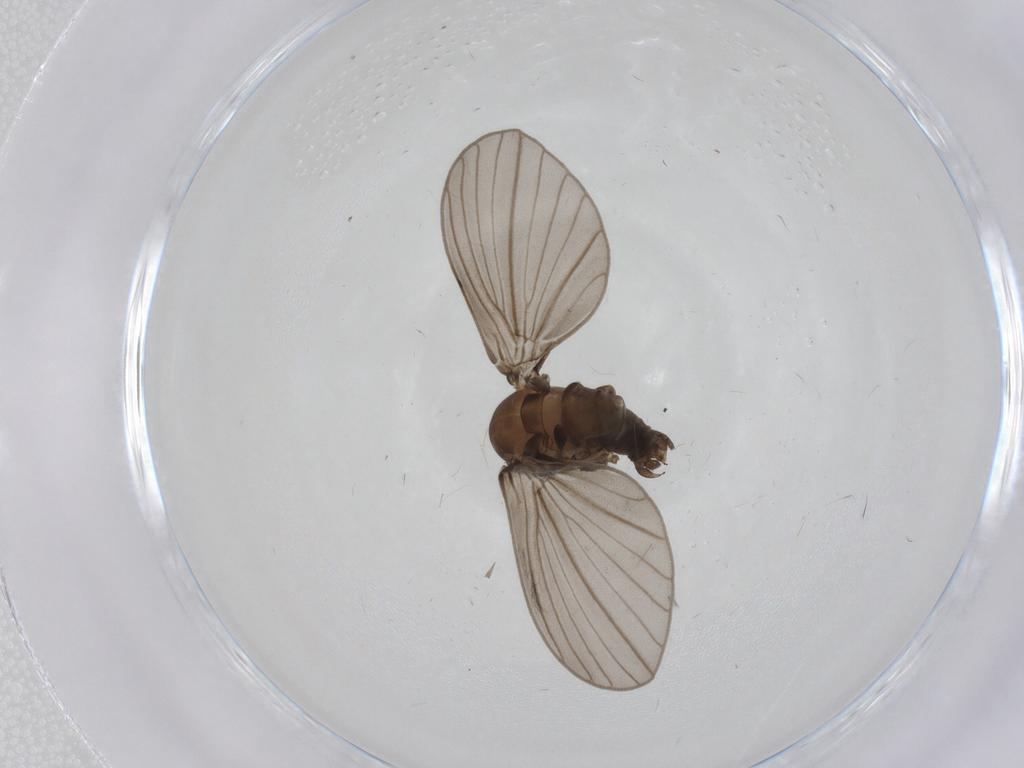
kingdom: Animalia
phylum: Arthropoda
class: Insecta
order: Diptera
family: Psychodidae
